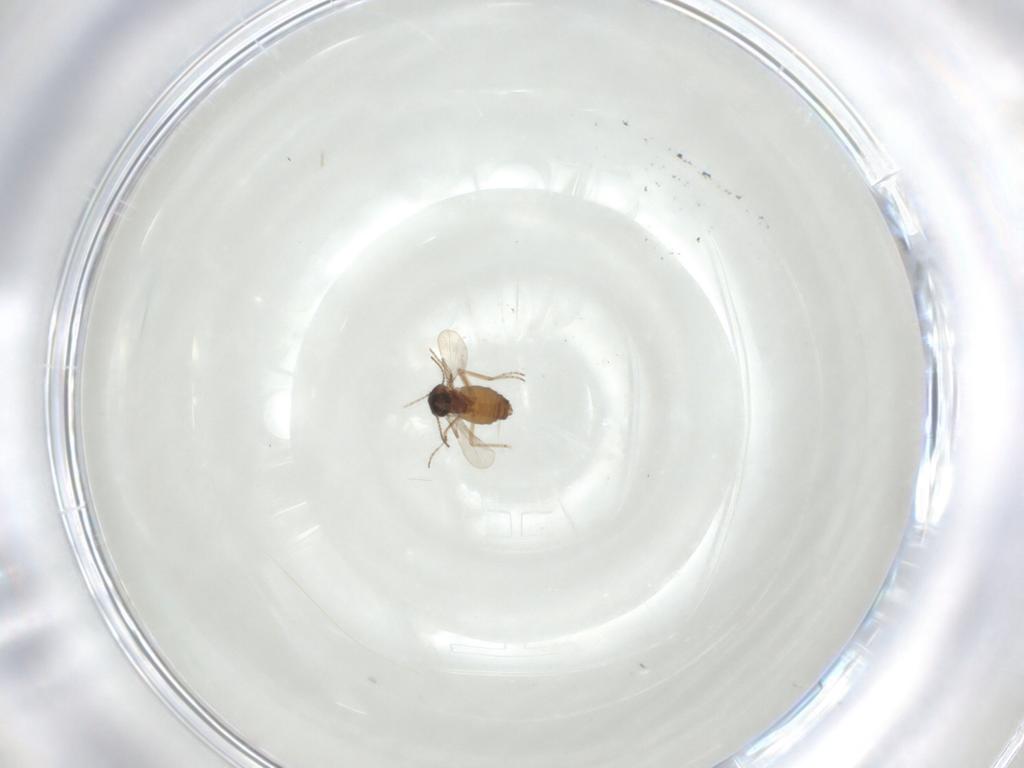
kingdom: Animalia
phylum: Arthropoda
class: Insecta
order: Diptera
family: Ceratopogonidae
